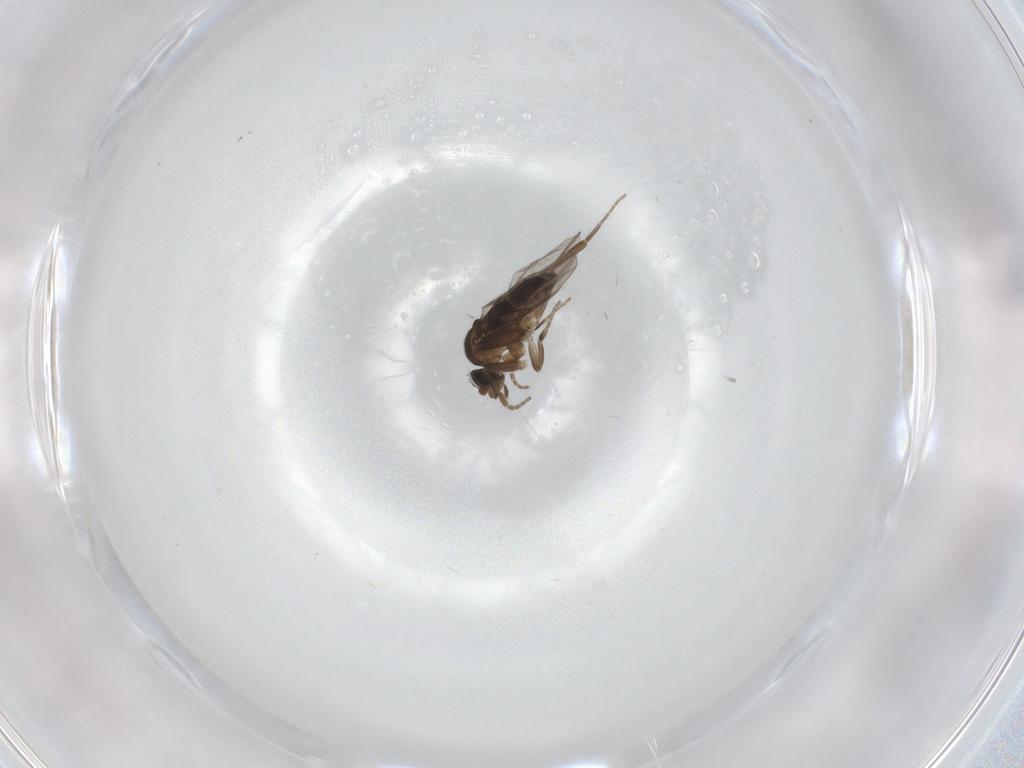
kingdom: Animalia
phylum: Arthropoda
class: Insecta
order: Diptera
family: Phoridae
